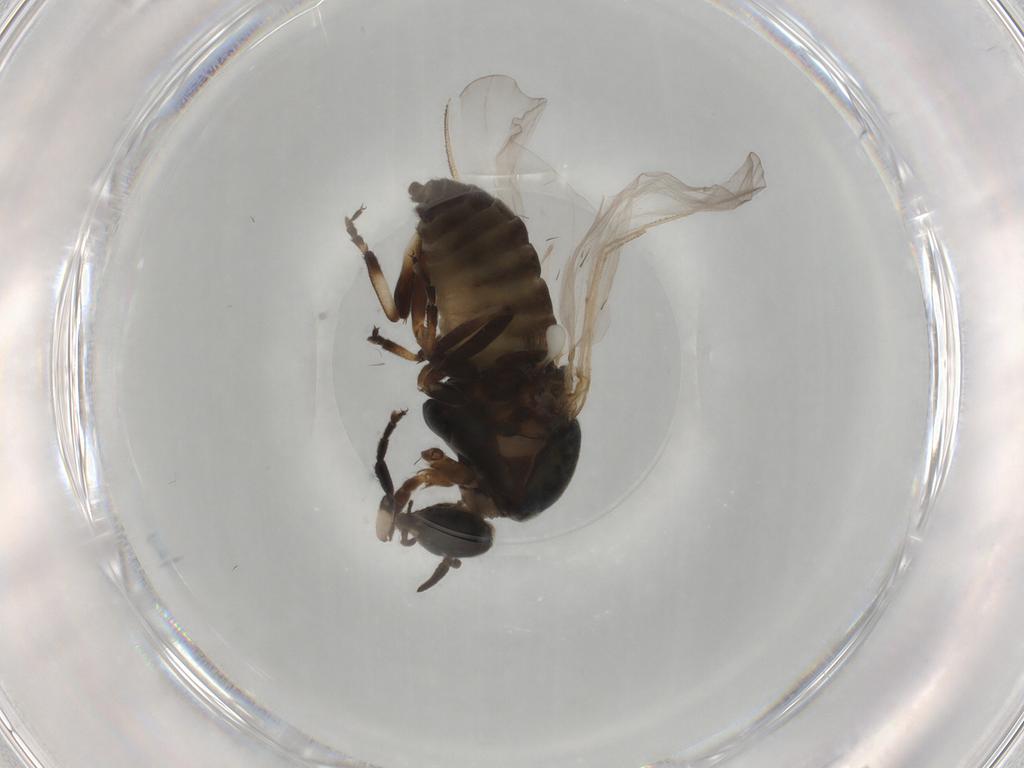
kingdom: Animalia
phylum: Arthropoda
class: Insecta
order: Diptera
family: Simuliidae
